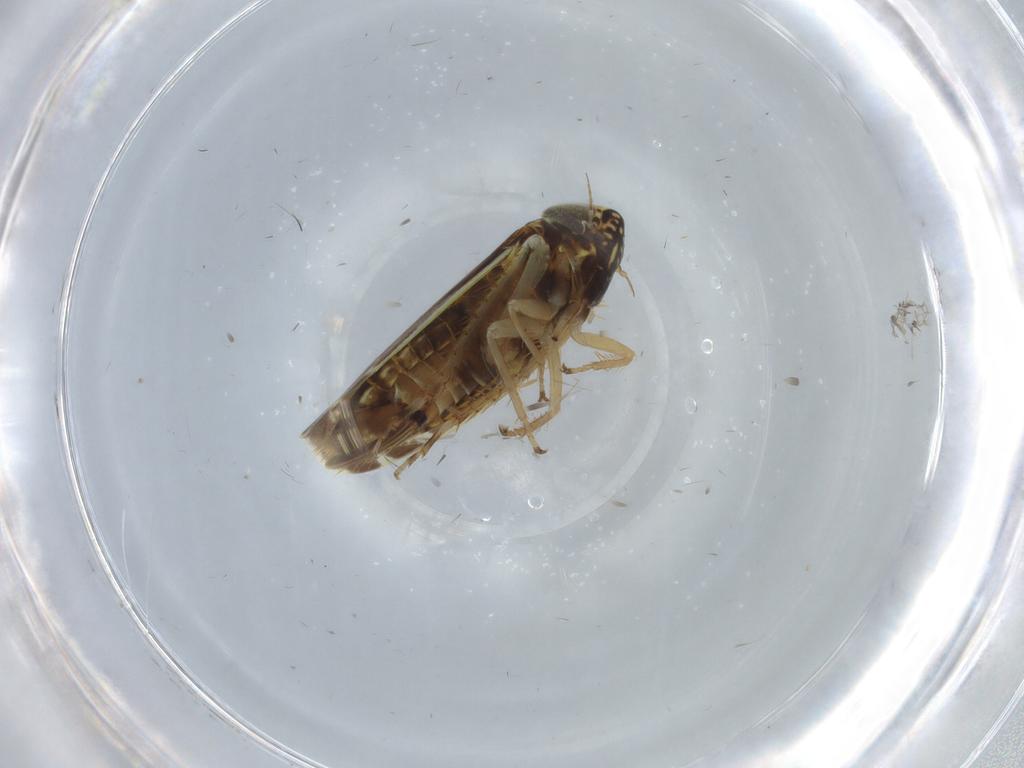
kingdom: Animalia
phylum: Arthropoda
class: Insecta
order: Hemiptera
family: Cicadellidae
